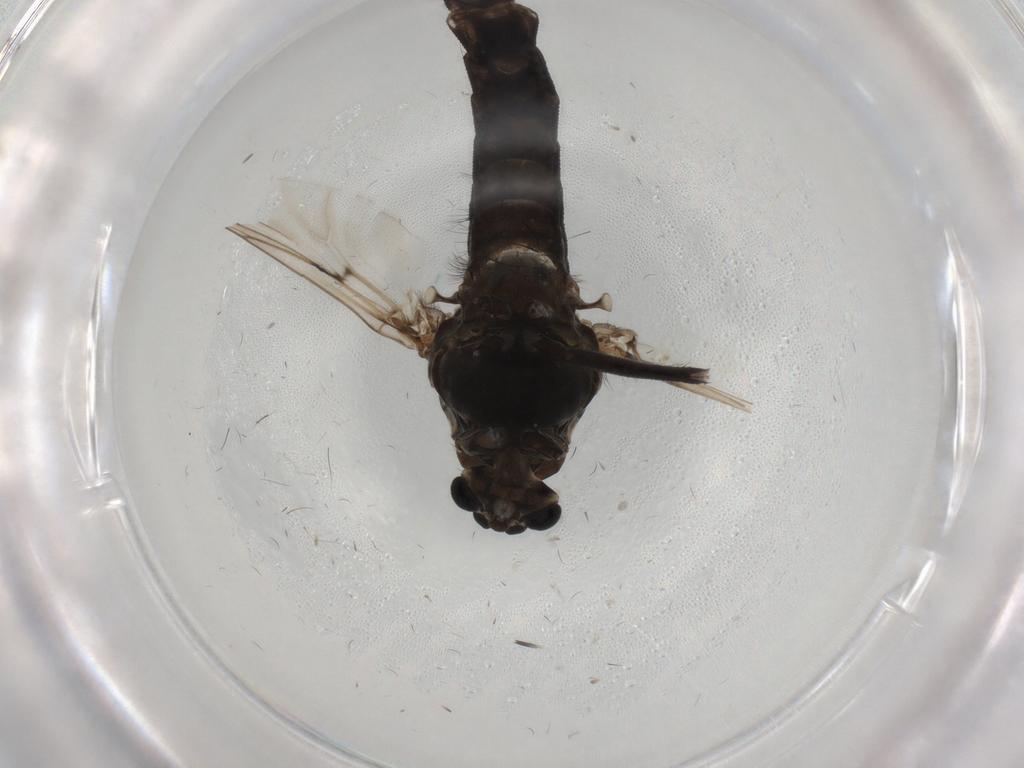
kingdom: Animalia
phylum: Arthropoda
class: Insecta
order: Diptera
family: Chironomidae
